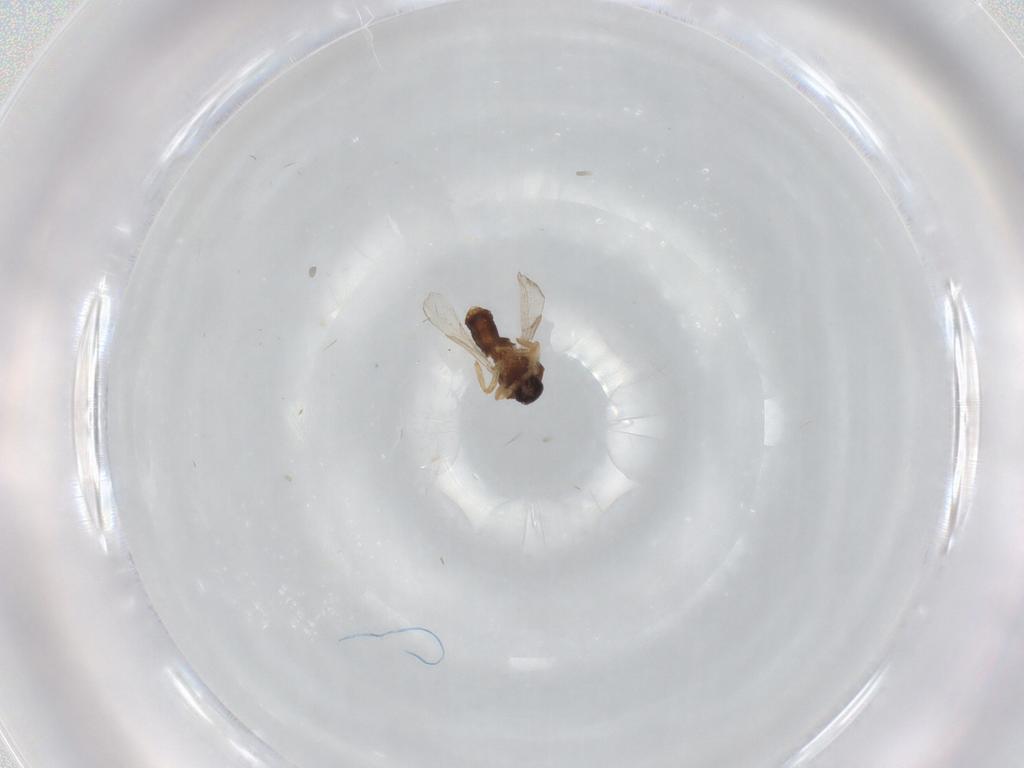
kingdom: Animalia
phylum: Arthropoda
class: Insecta
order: Diptera
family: Ceratopogonidae
